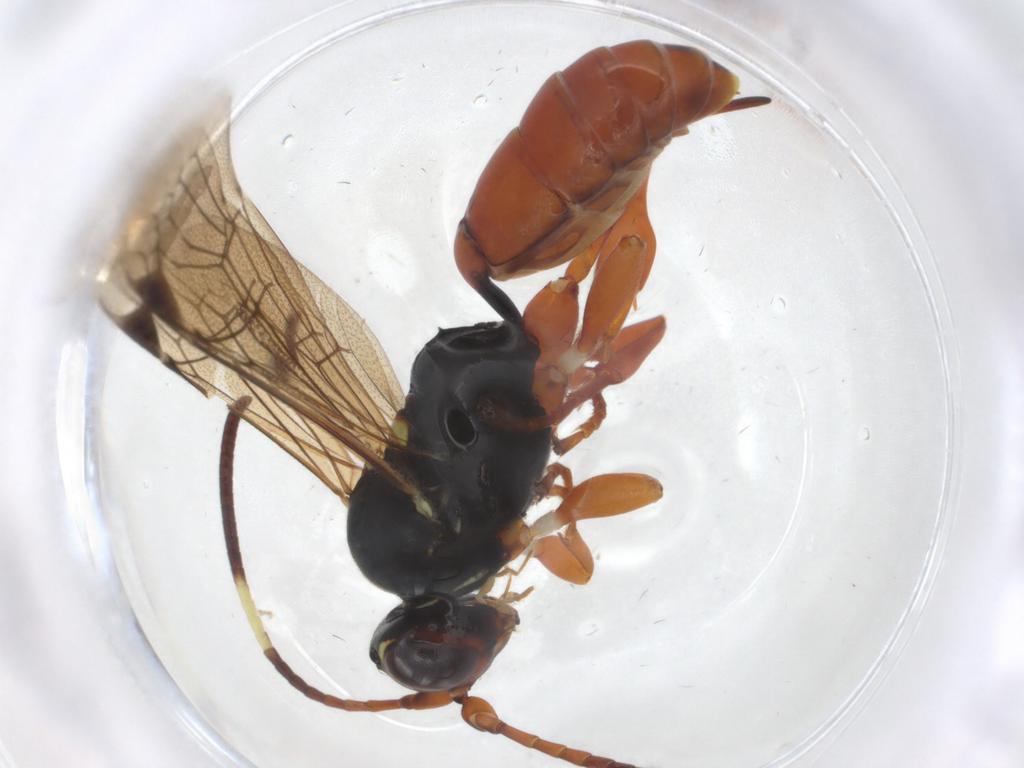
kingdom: Animalia
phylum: Arthropoda
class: Insecta
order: Hymenoptera
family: Ichneumonidae
